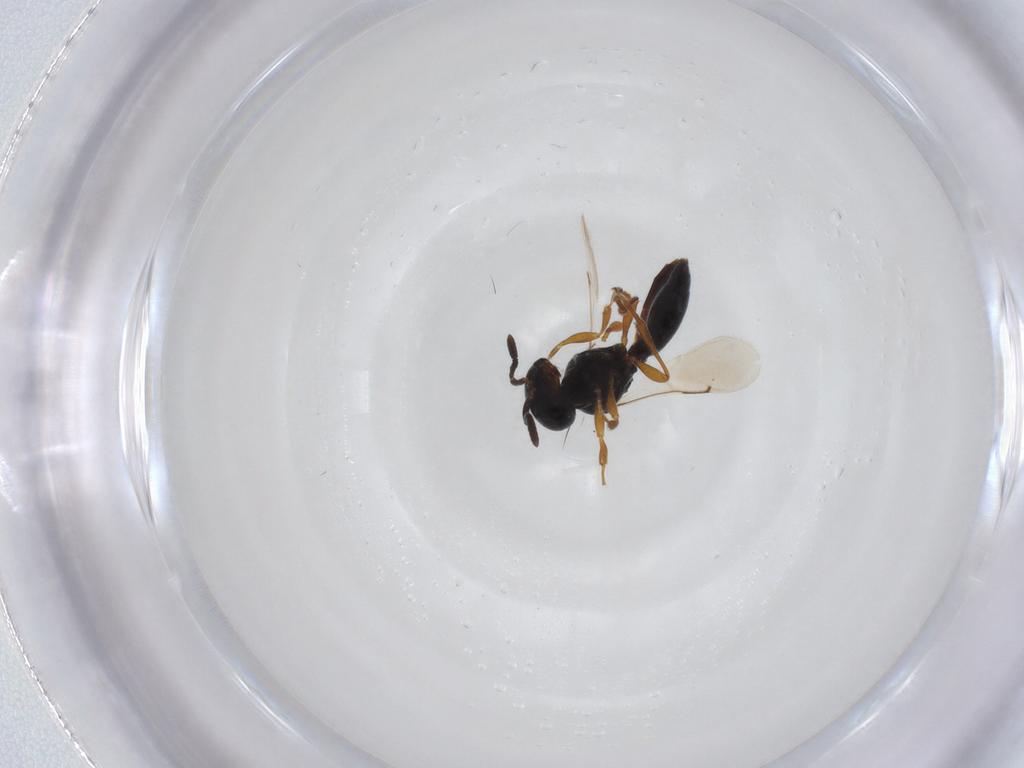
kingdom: Animalia
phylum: Arthropoda
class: Insecta
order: Hymenoptera
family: Scelionidae
